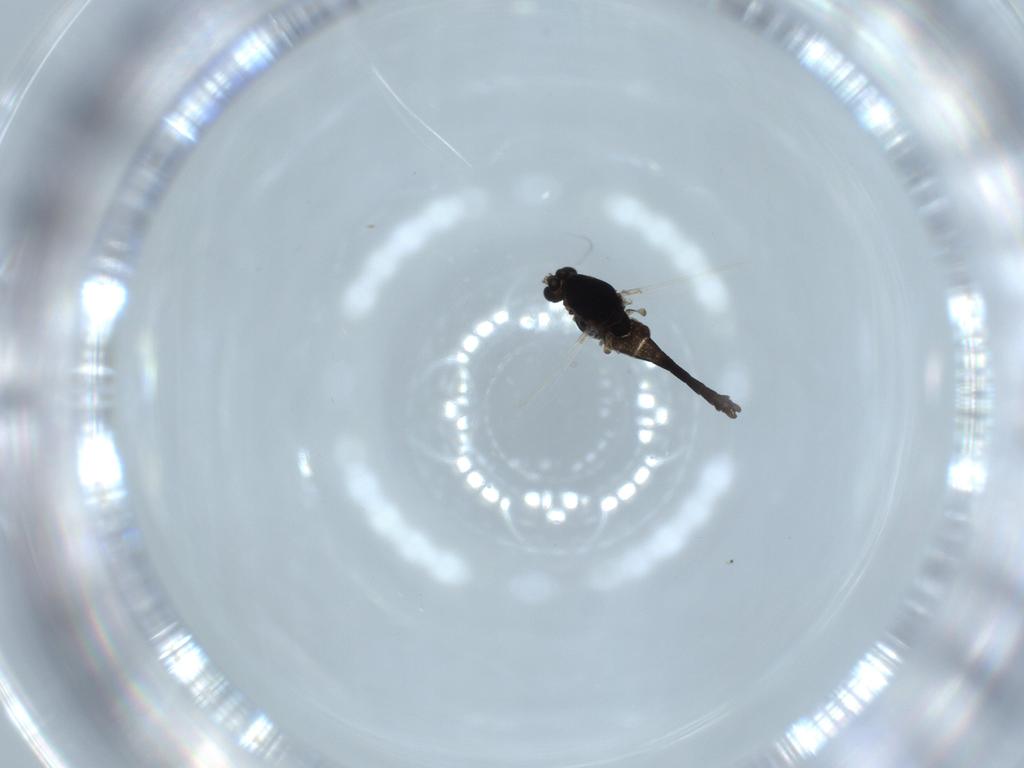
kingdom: Animalia
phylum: Arthropoda
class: Insecta
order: Diptera
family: Chironomidae
